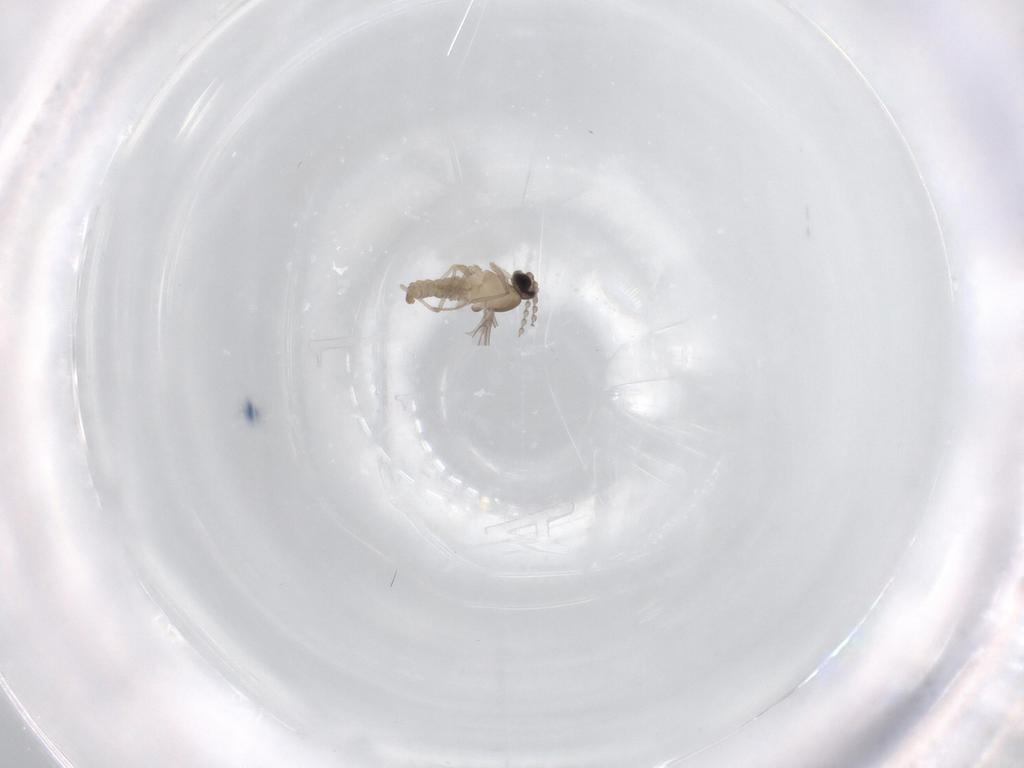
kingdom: Animalia
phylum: Arthropoda
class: Insecta
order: Diptera
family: Cecidomyiidae
